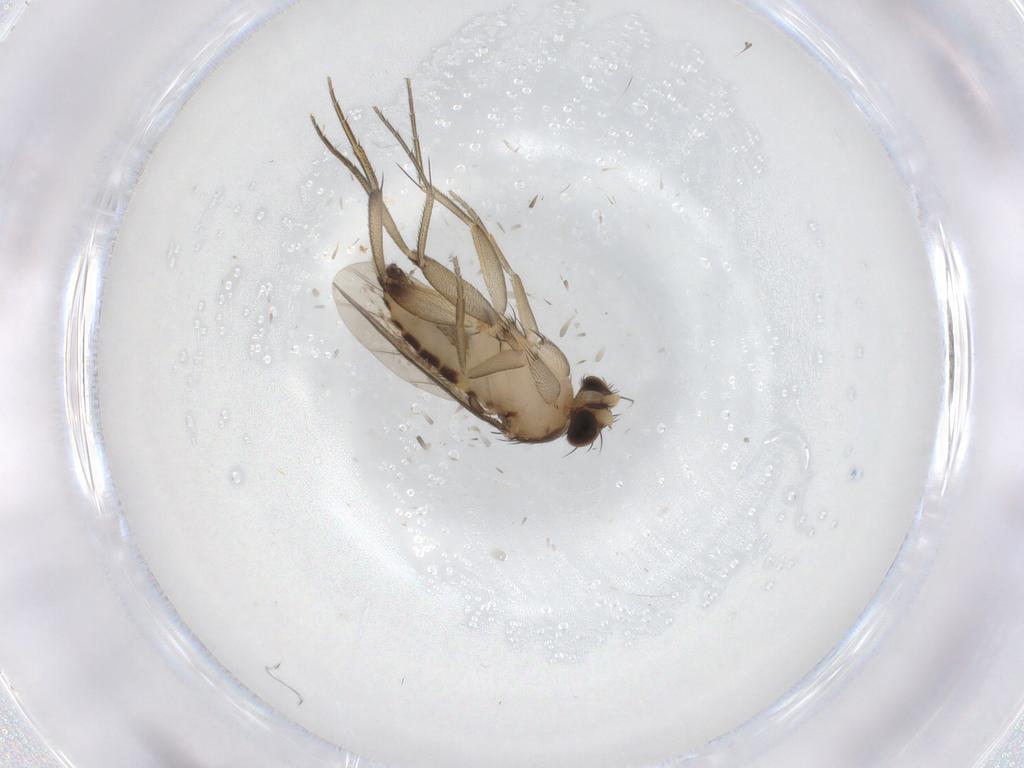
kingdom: Animalia
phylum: Arthropoda
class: Insecta
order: Diptera
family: Phoridae
